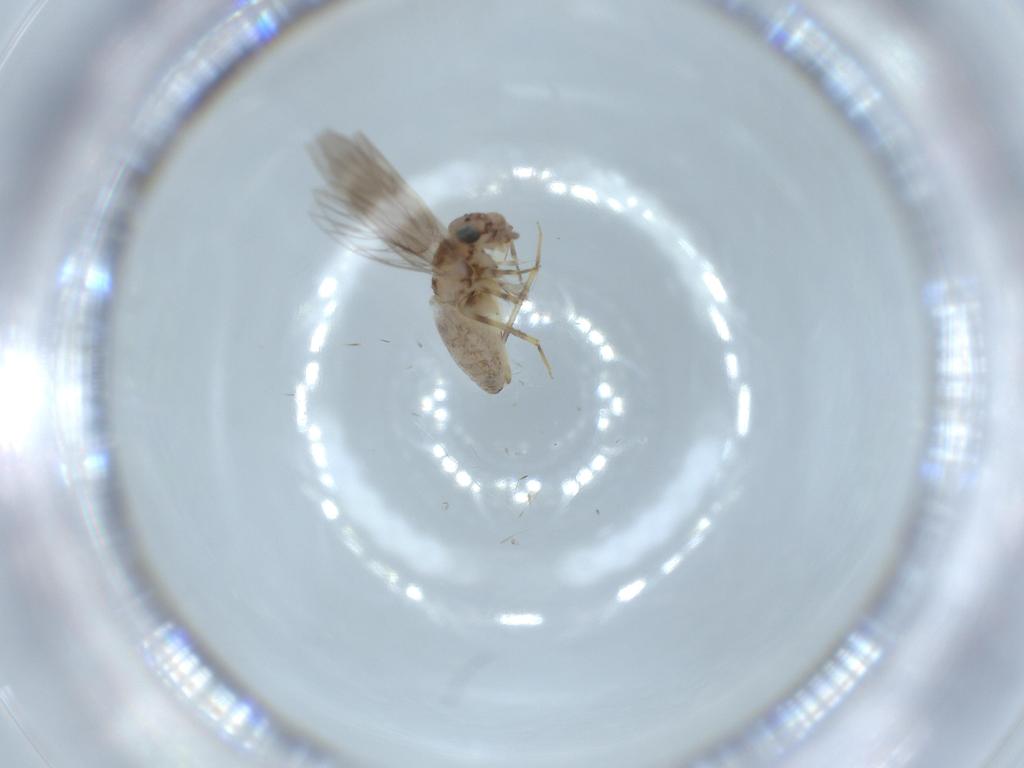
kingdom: Animalia
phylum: Arthropoda
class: Insecta
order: Psocodea
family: Lepidopsocidae
